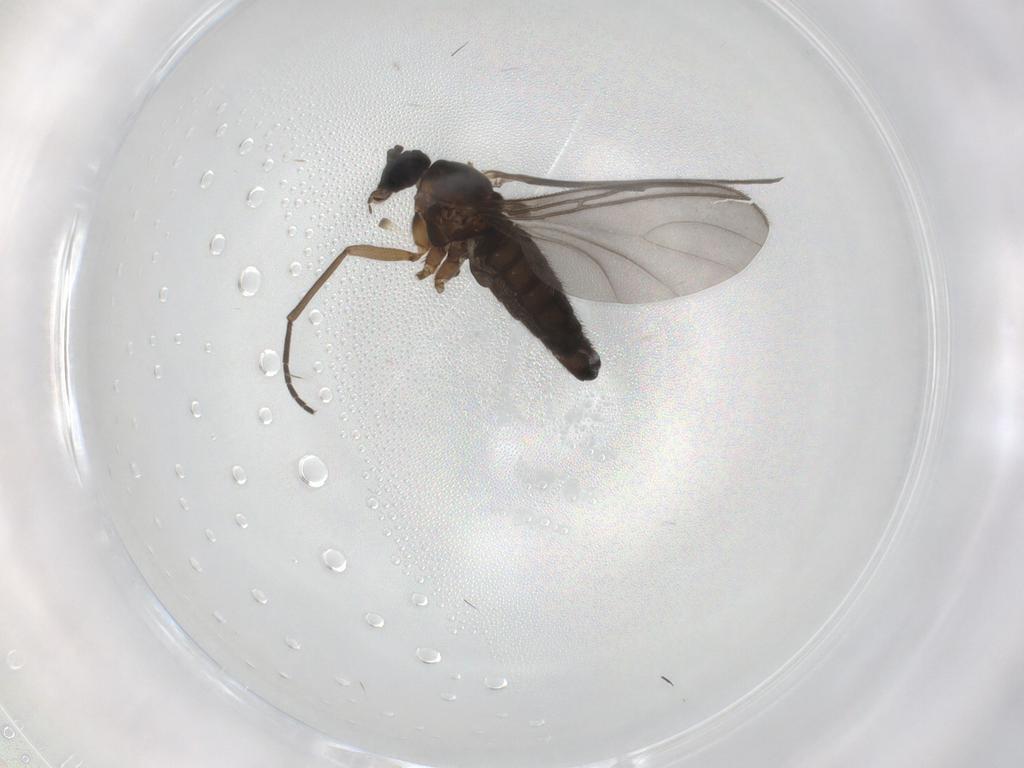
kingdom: Animalia
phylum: Arthropoda
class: Insecta
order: Diptera
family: Sciaridae
